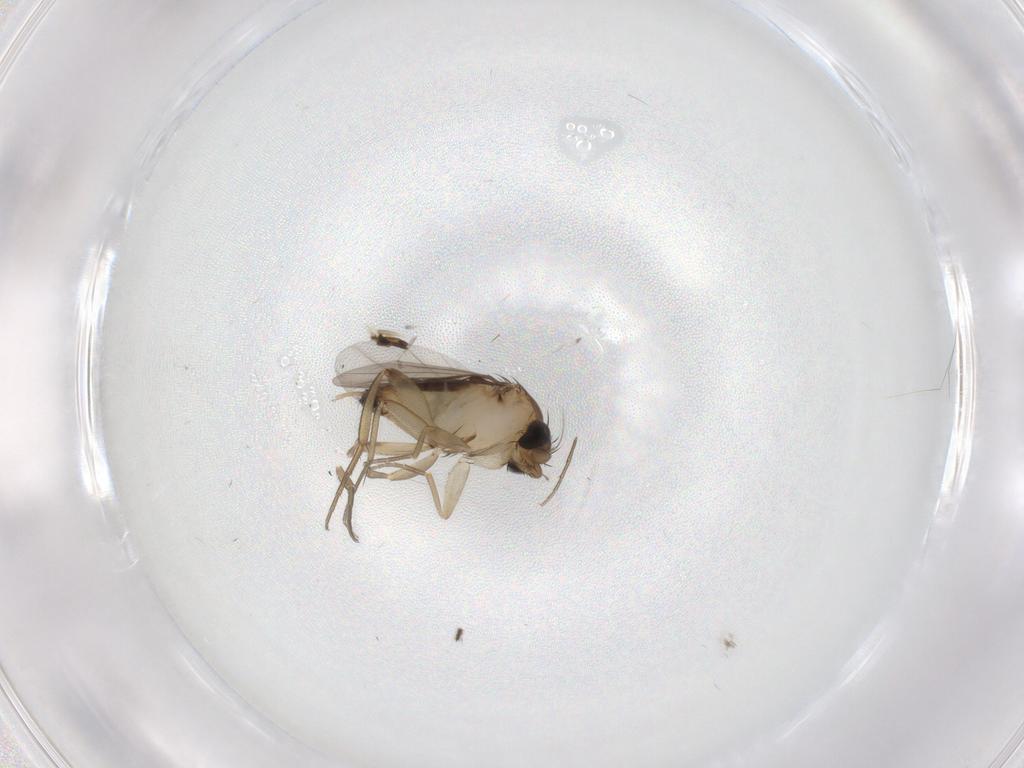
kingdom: Animalia
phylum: Arthropoda
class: Insecta
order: Diptera
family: Phoridae
